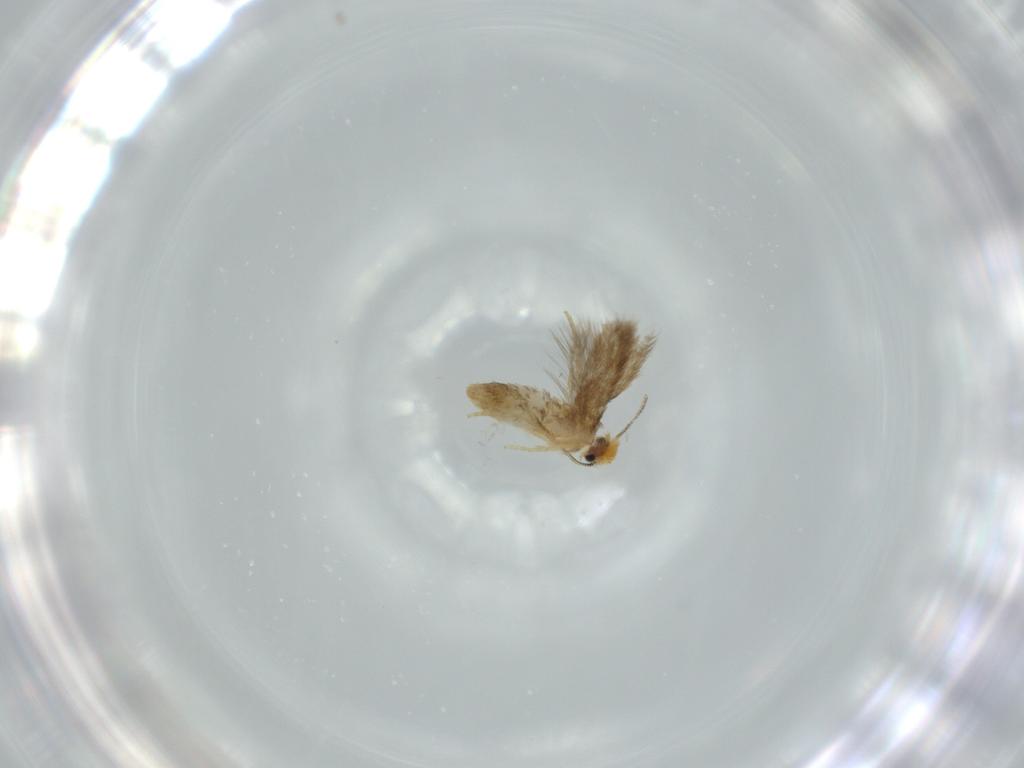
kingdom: Animalia
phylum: Arthropoda
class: Insecta
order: Lepidoptera
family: Nepticulidae
